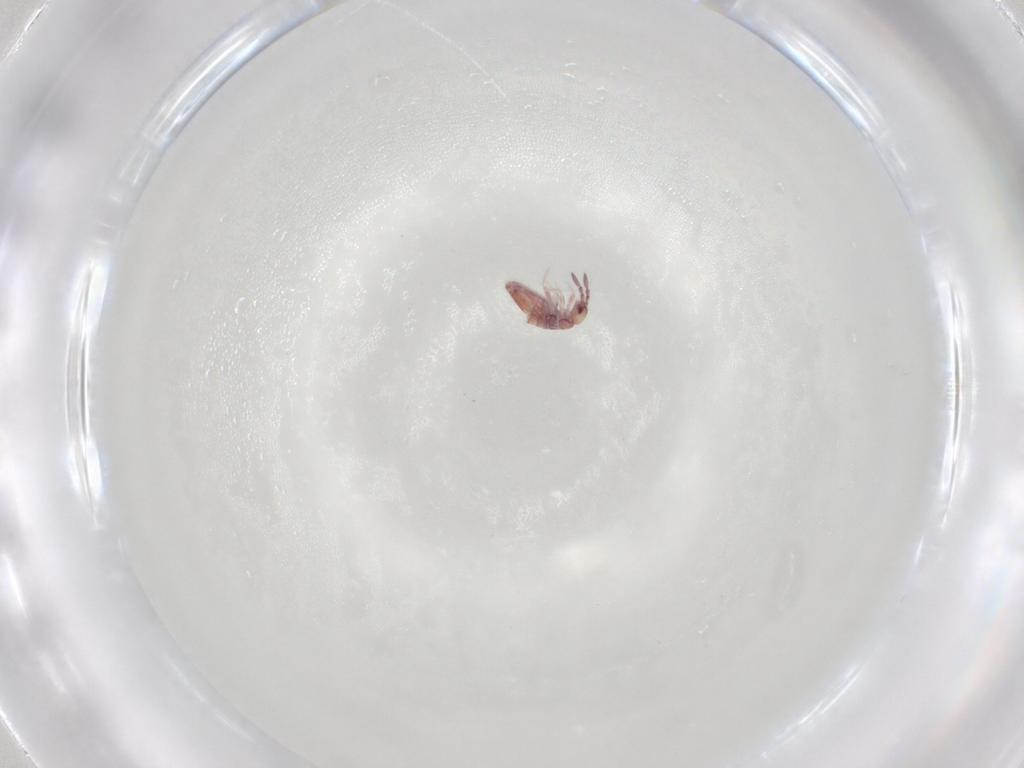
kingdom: Animalia
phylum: Arthropoda
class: Collembola
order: Entomobryomorpha
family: Entomobryidae
